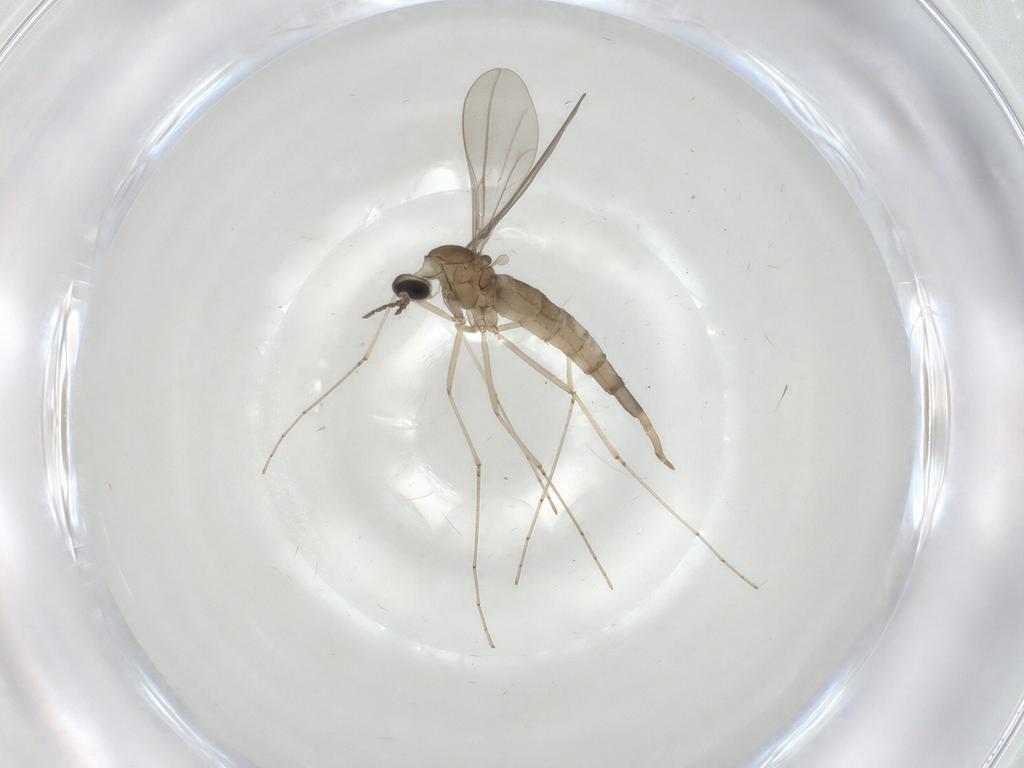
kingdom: Animalia
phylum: Arthropoda
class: Insecta
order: Diptera
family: Cecidomyiidae
